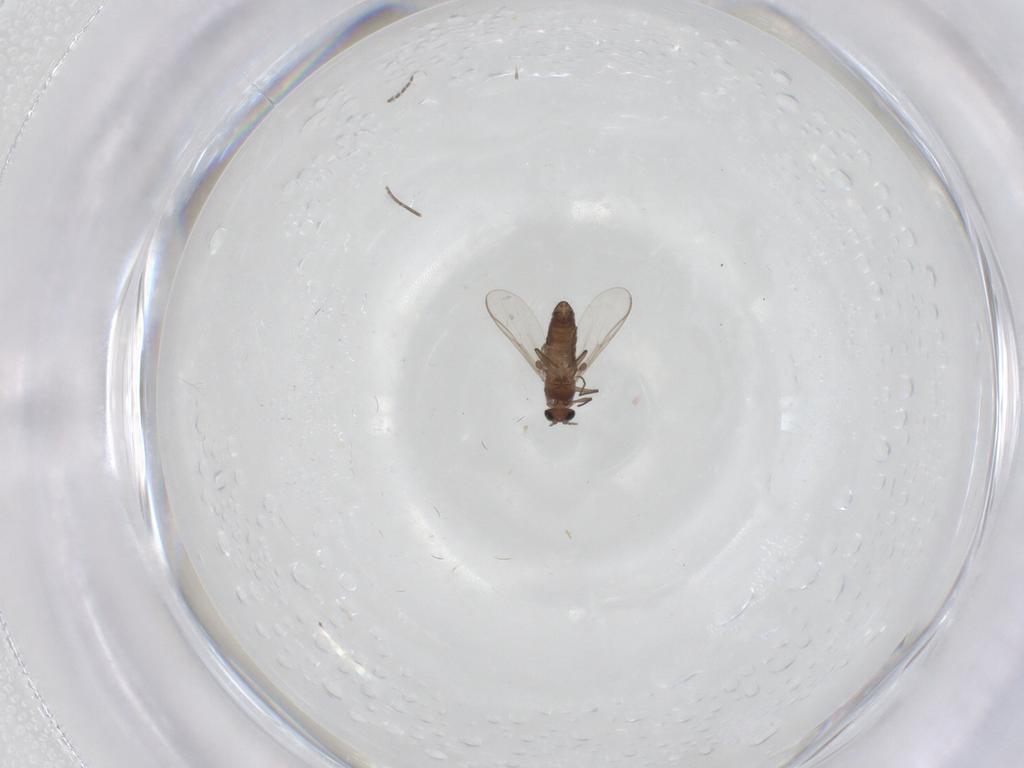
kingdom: Animalia
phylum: Arthropoda
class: Insecta
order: Diptera
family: Chironomidae
